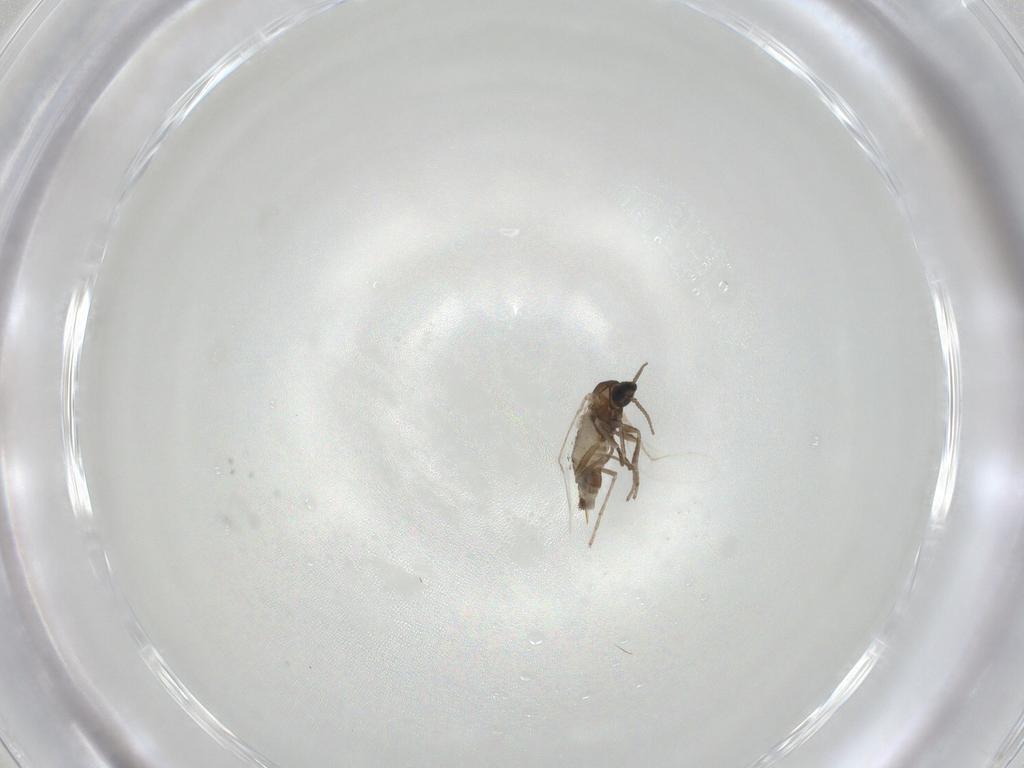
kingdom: Animalia
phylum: Arthropoda
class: Insecta
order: Diptera
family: Cecidomyiidae
